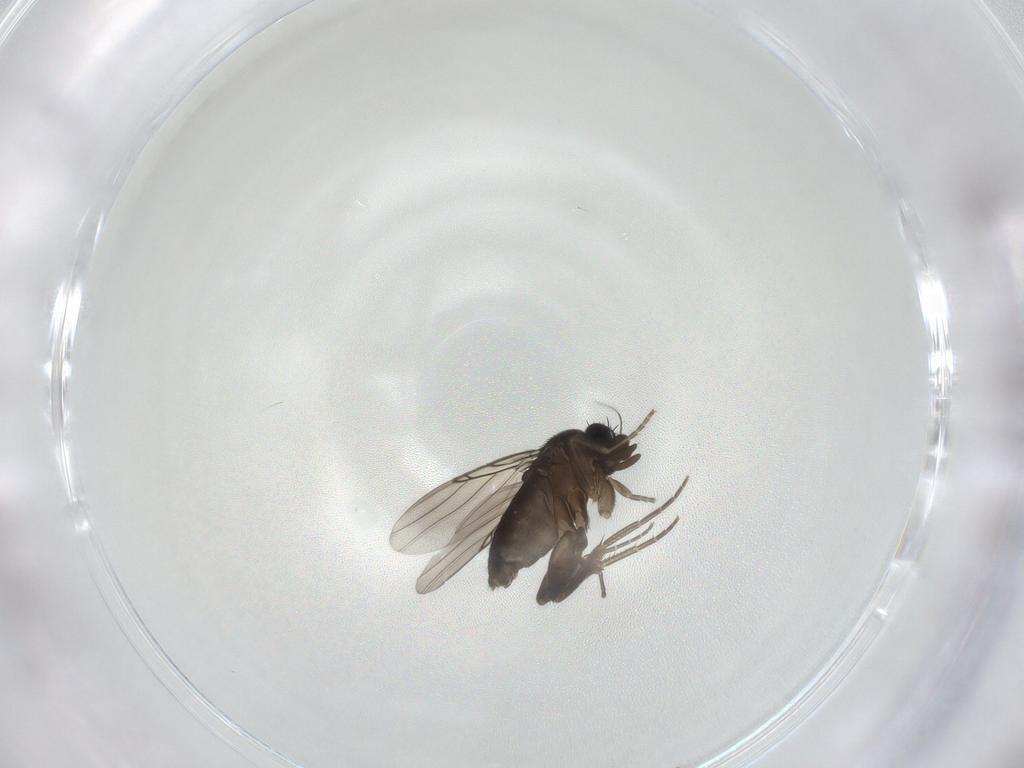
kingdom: Animalia
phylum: Arthropoda
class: Insecta
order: Diptera
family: Phoridae
